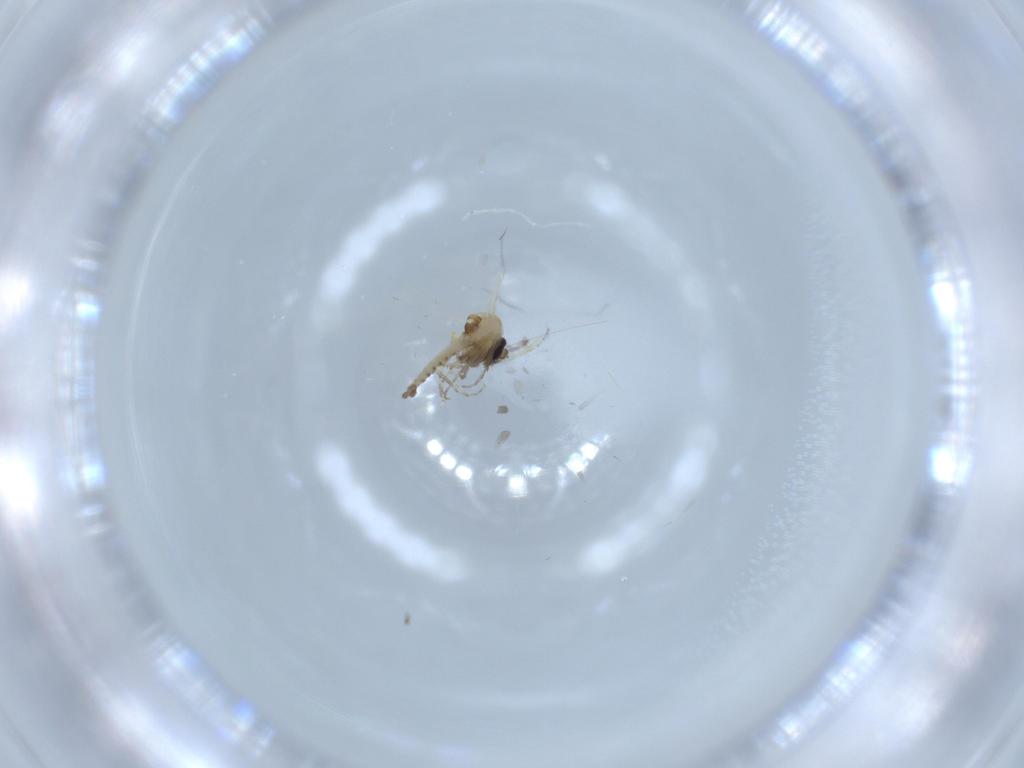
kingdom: Animalia
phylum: Arthropoda
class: Insecta
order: Diptera
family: Ceratopogonidae
